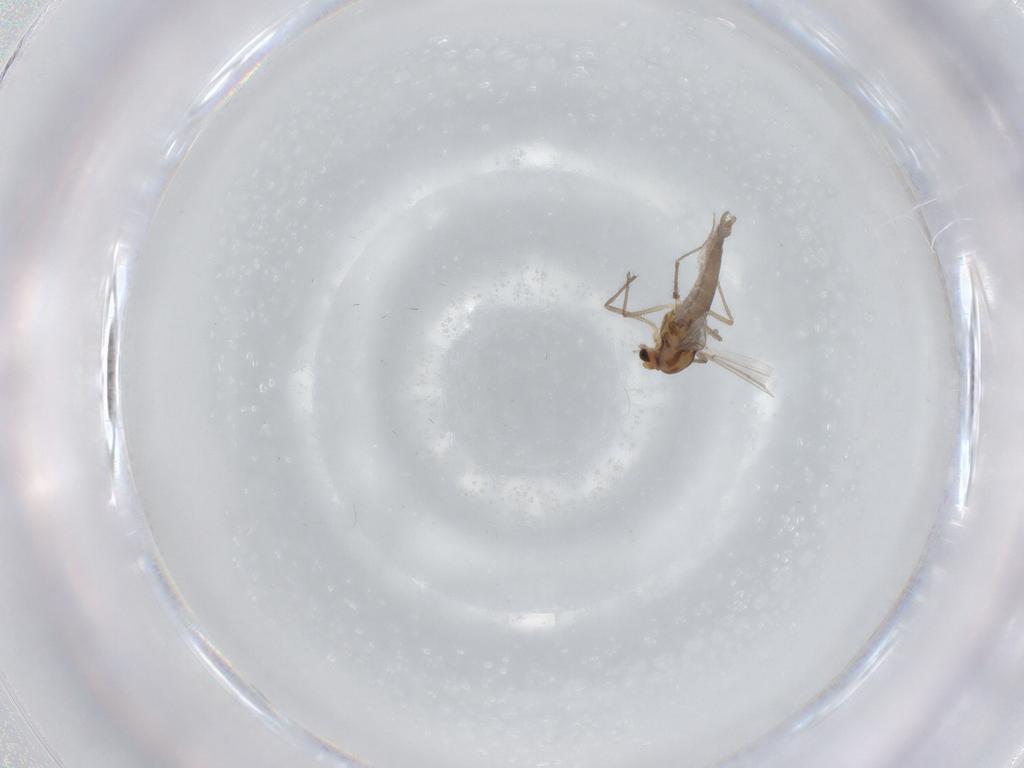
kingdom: Animalia
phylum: Arthropoda
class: Insecta
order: Diptera
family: Chironomidae
